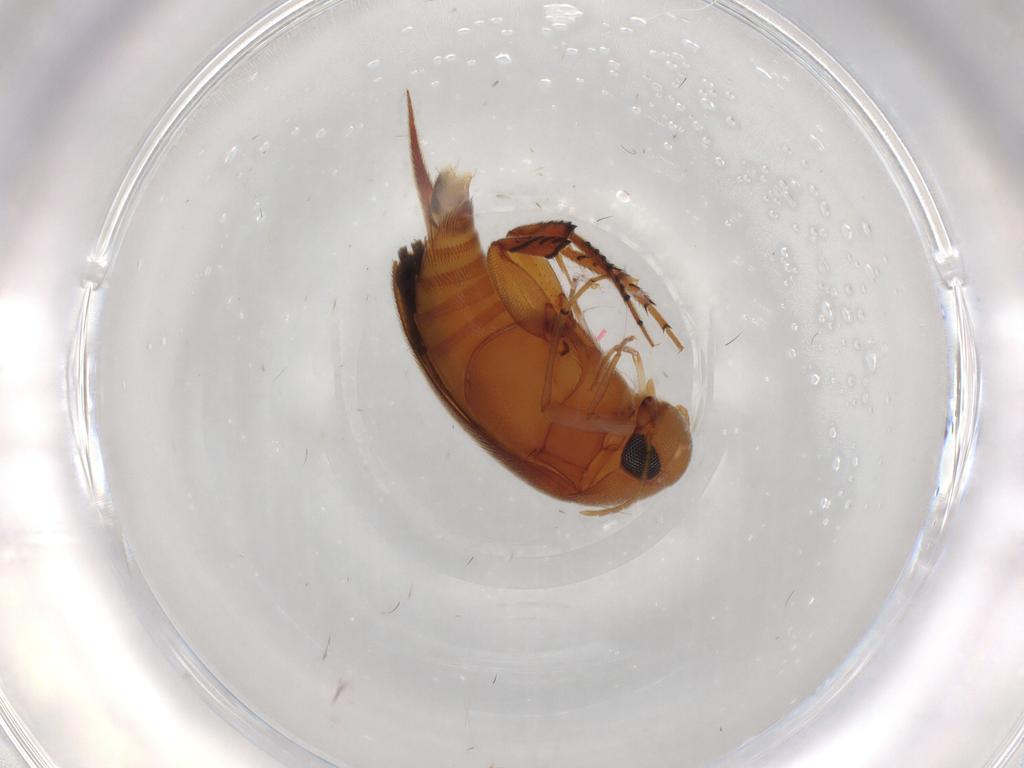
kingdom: Animalia
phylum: Arthropoda
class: Insecta
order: Coleoptera
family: Mordellidae
